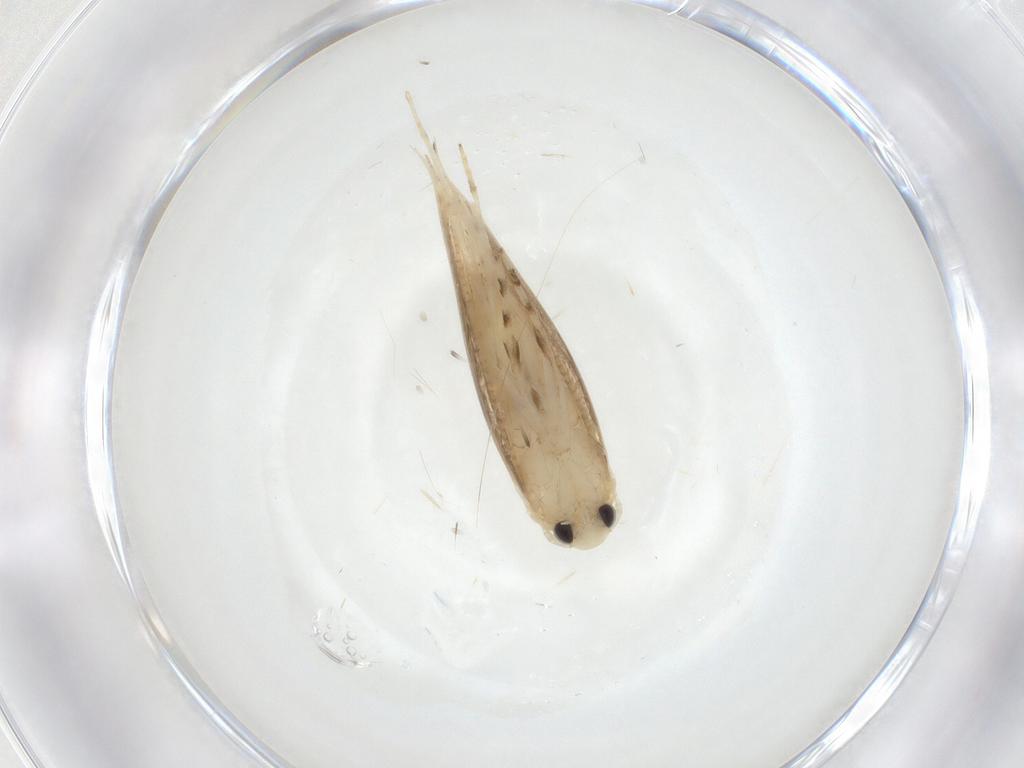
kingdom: Animalia
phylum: Arthropoda
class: Insecta
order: Lepidoptera
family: Gracillariidae
